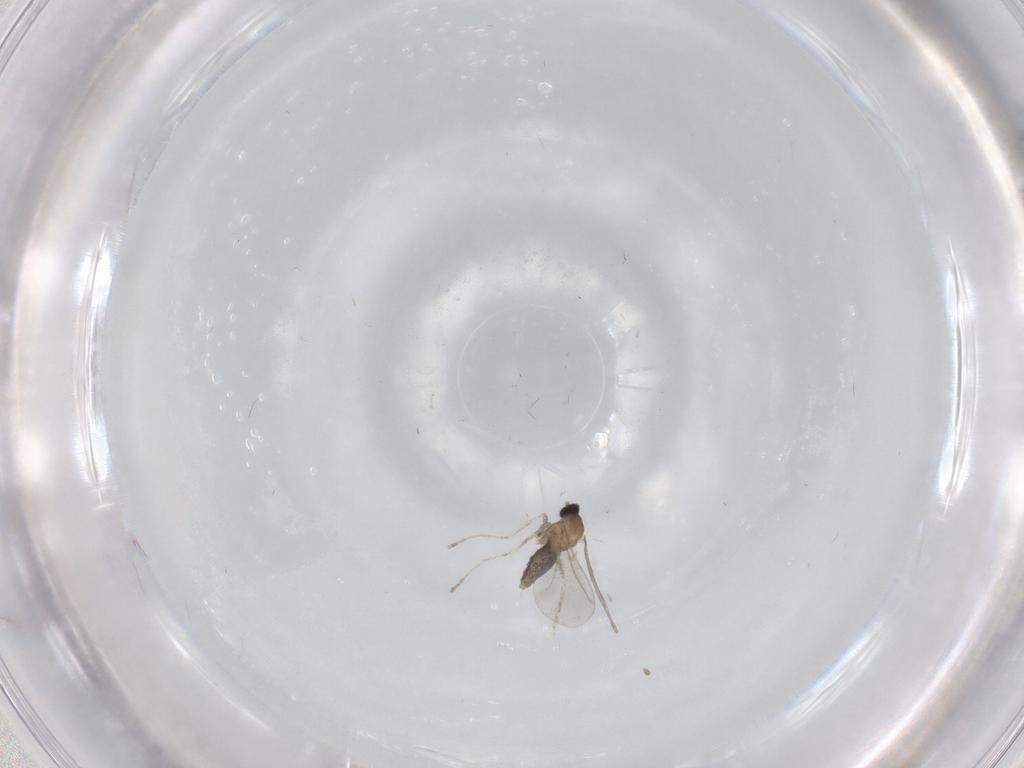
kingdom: Animalia
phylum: Arthropoda
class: Insecta
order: Diptera
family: Cecidomyiidae
